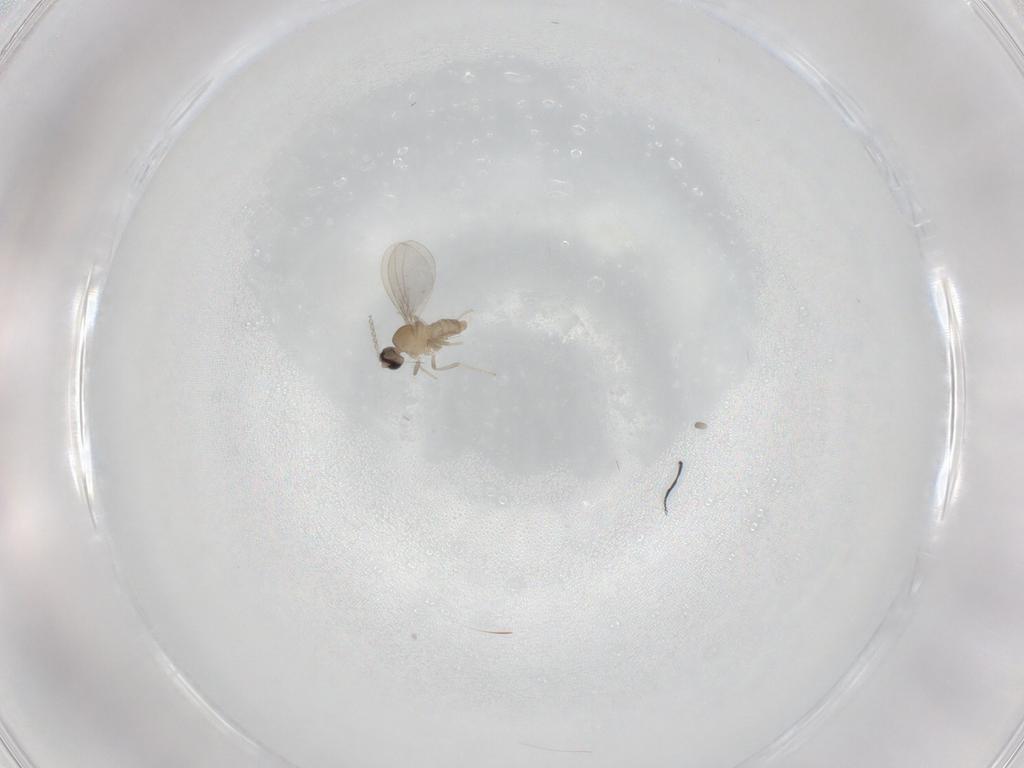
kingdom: Animalia
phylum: Arthropoda
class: Insecta
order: Diptera
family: Cecidomyiidae
